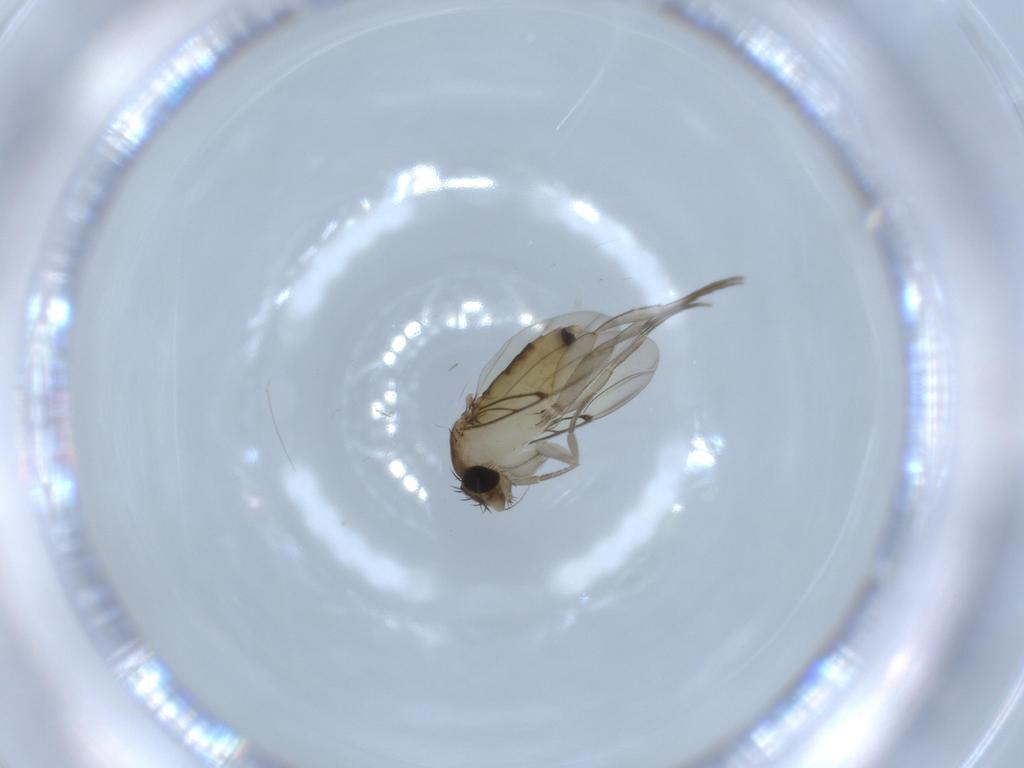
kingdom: Animalia
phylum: Arthropoda
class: Insecta
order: Diptera
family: Phoridae
